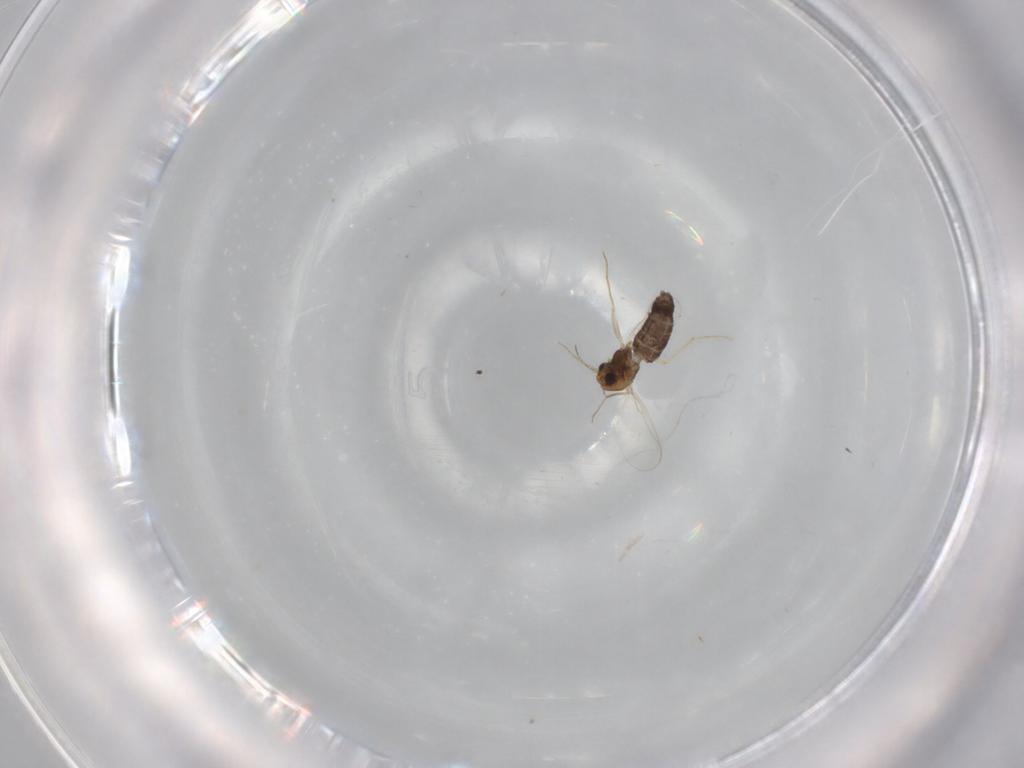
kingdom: Animalia
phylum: Arthropoda
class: Insecta
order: Diptera
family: Chironomidae
